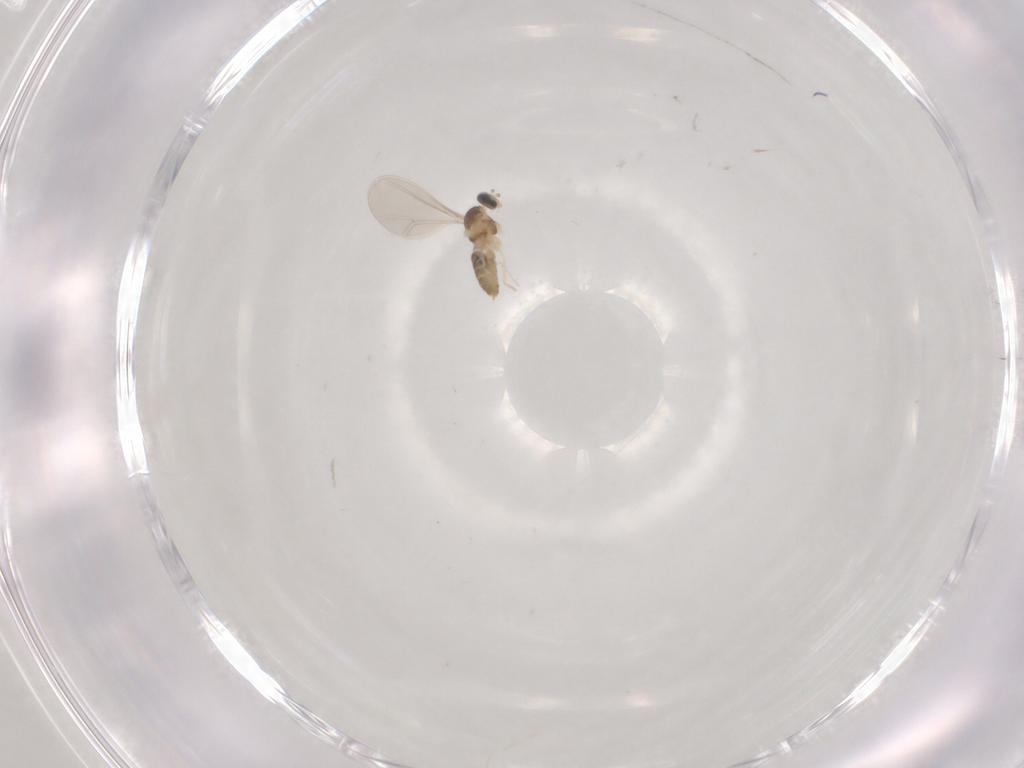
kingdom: Animalia
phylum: Arthropoda
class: Insecta
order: Diptera
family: Cecidomyiidae
